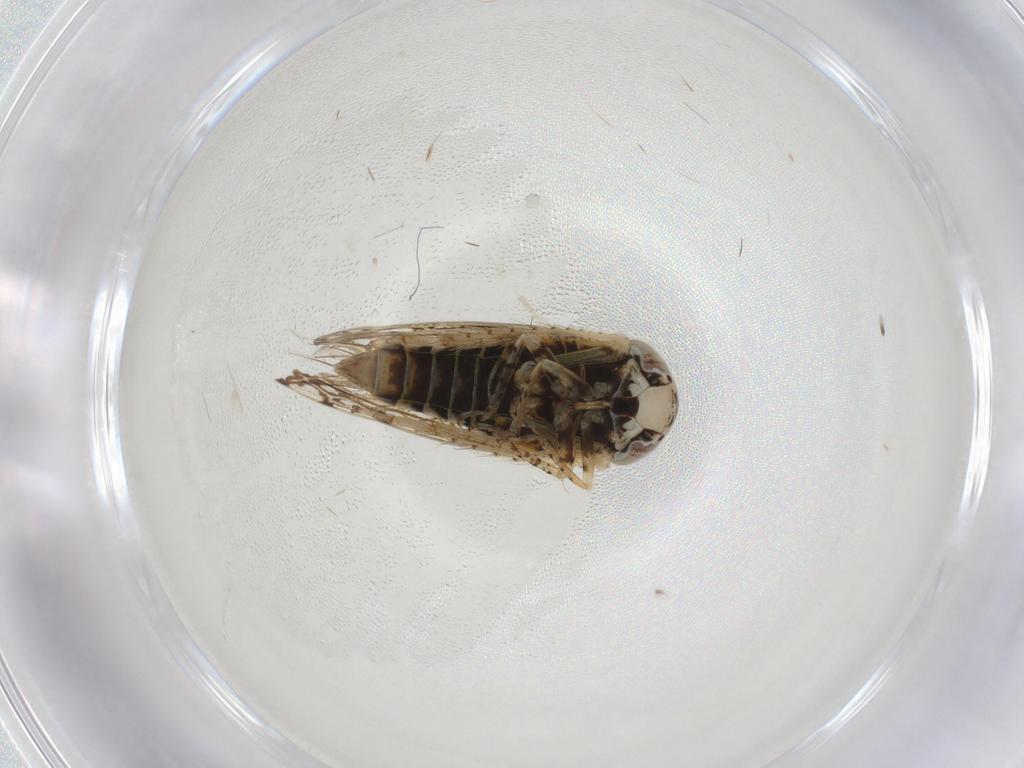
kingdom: Animalia
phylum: Arthropoda
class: Insecta
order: Hemiptera
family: Cicadellidae
